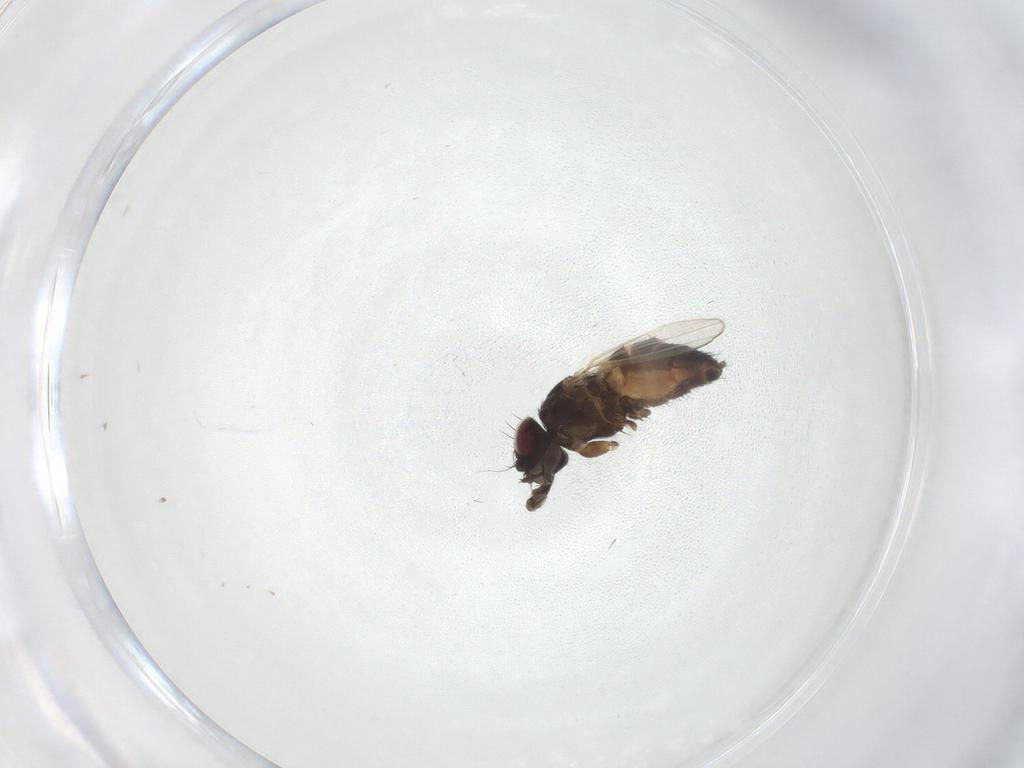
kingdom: Animalia
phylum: Arthropoda
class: Insecta
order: Diptera
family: Milichiidae
